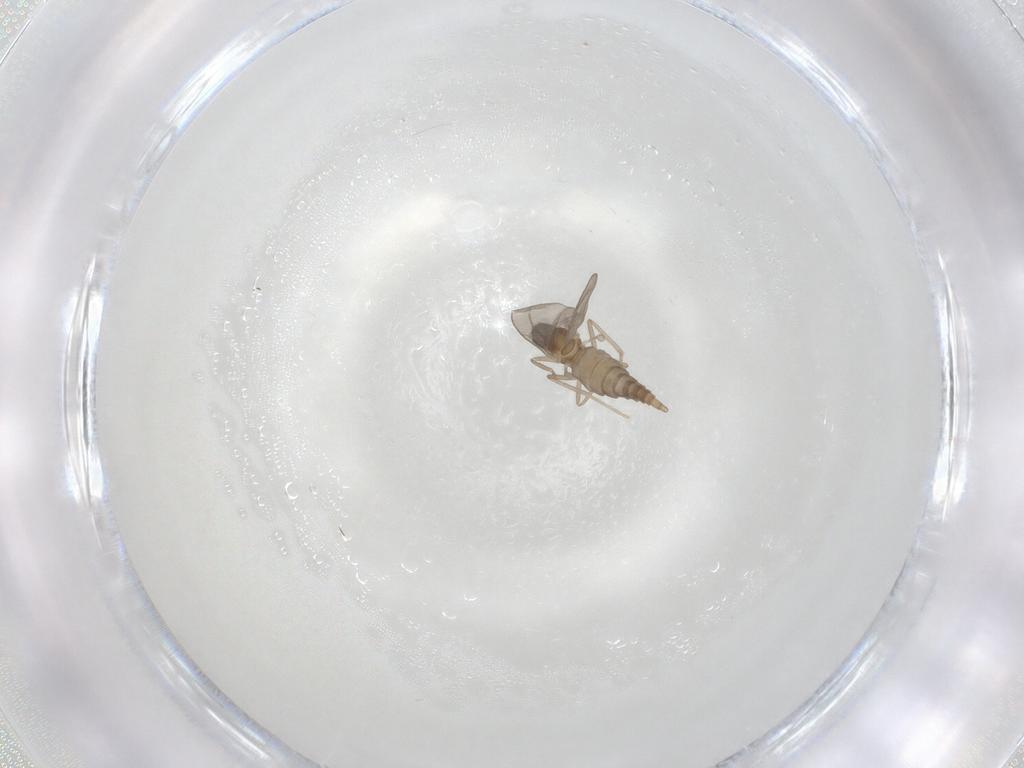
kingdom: Animalia
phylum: Arthropoda
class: Insecta
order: Diptera
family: Cecidomyiidae
